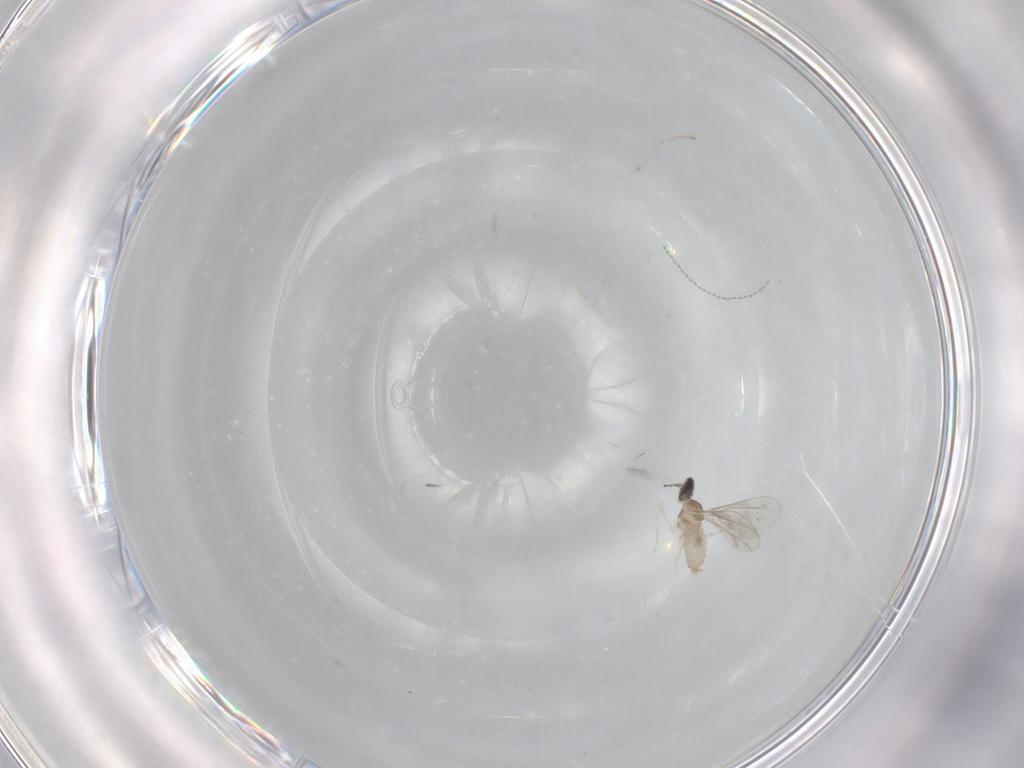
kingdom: Animalia
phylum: Arthropoda
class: Insecta
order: Diptera
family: Cecidomyiidae
